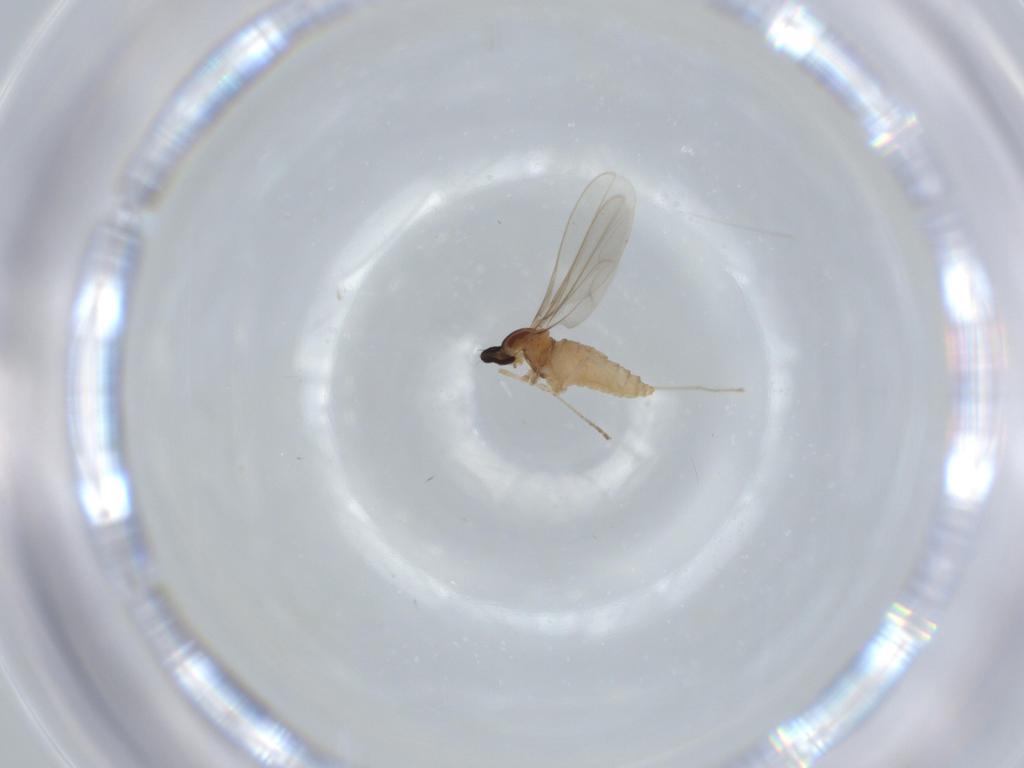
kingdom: Animalia
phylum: Arthropoda
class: Insecta
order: Diptera
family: Cecidomyiidae
